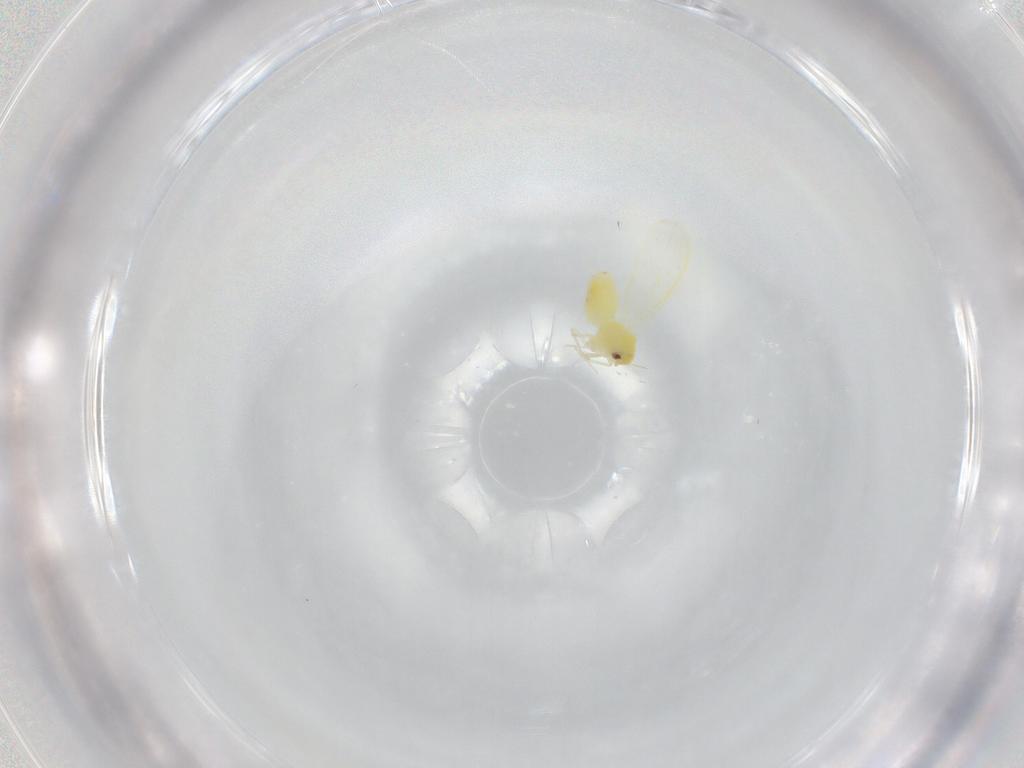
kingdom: Animalia
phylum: Arthropoda
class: Insecta
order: Hemiptera
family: Aleyrodidae
